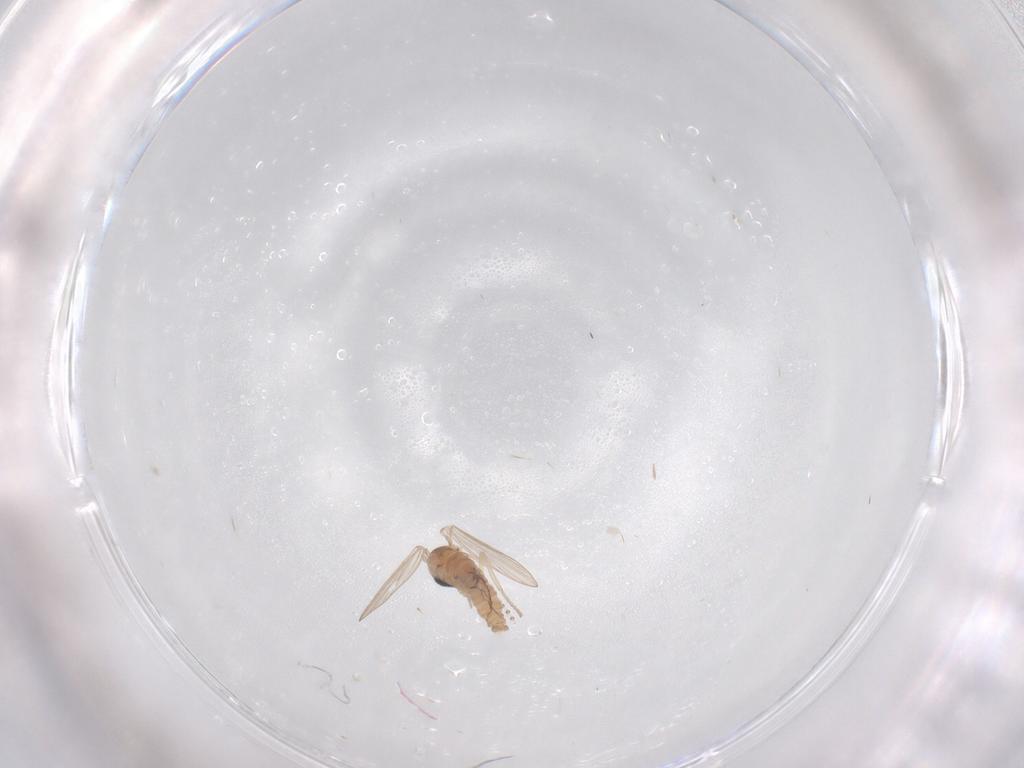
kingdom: Animalia
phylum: Arthropoda
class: Insecta
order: Diptera
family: Psychodidae
